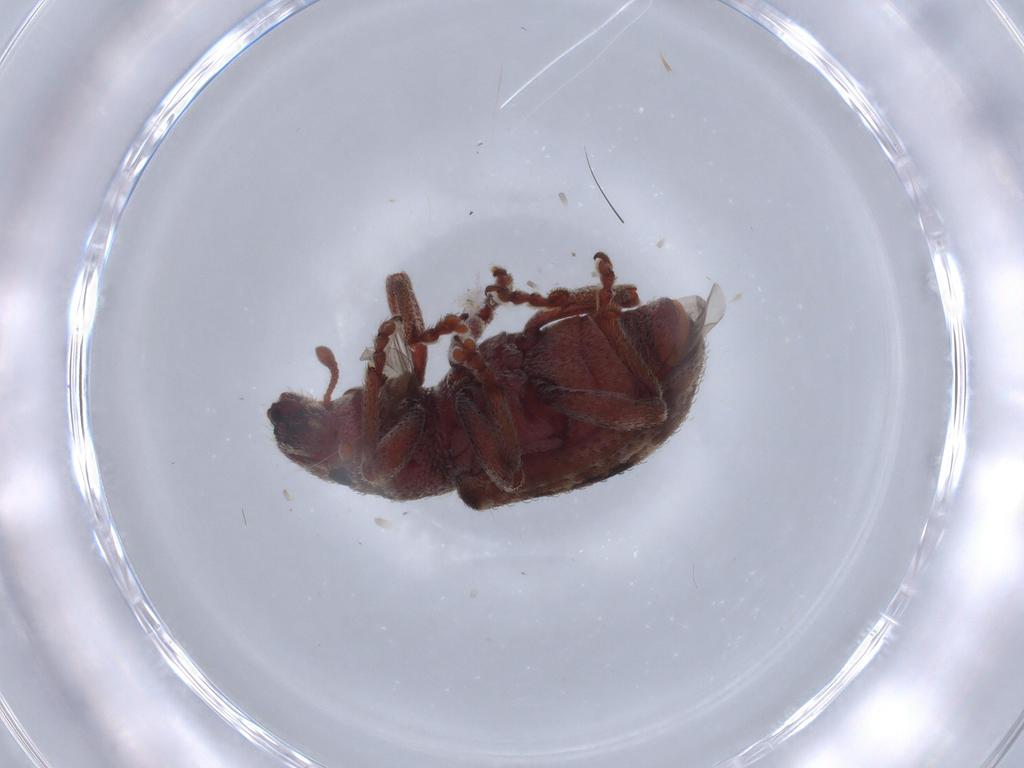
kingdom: Animalia
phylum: Arthropoda
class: Insecta
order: Coleoptera
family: Curculionidae
